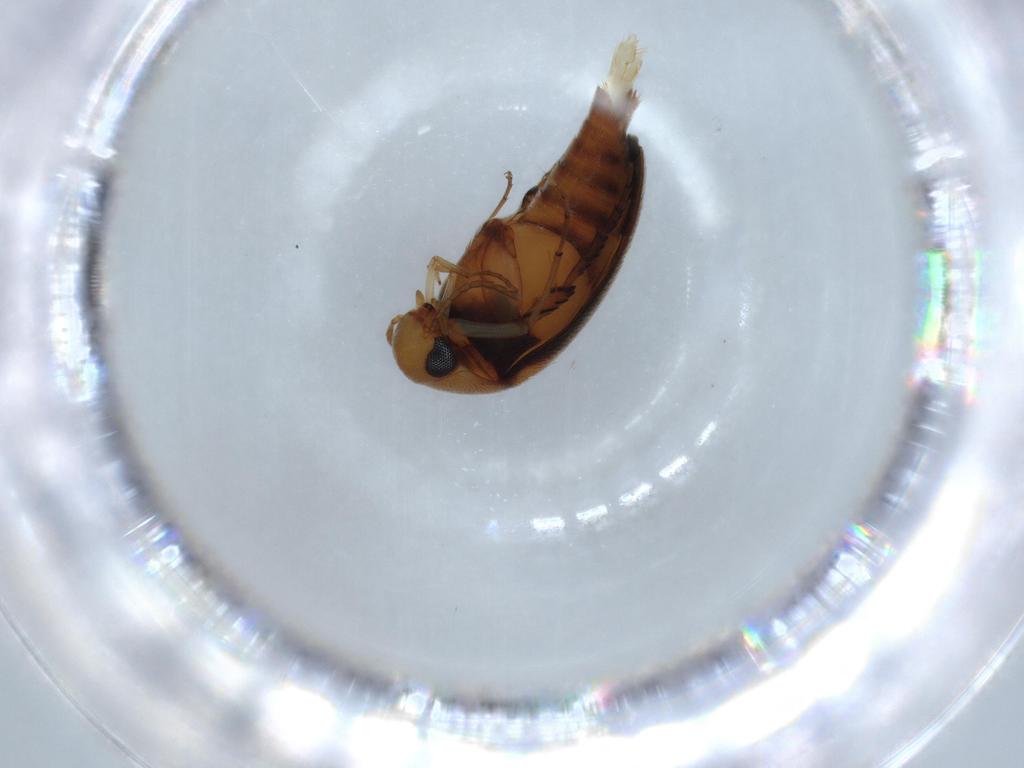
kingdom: Animalia
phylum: Arthropoda
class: Insecta
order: Coleoptera
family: Mordellidae
